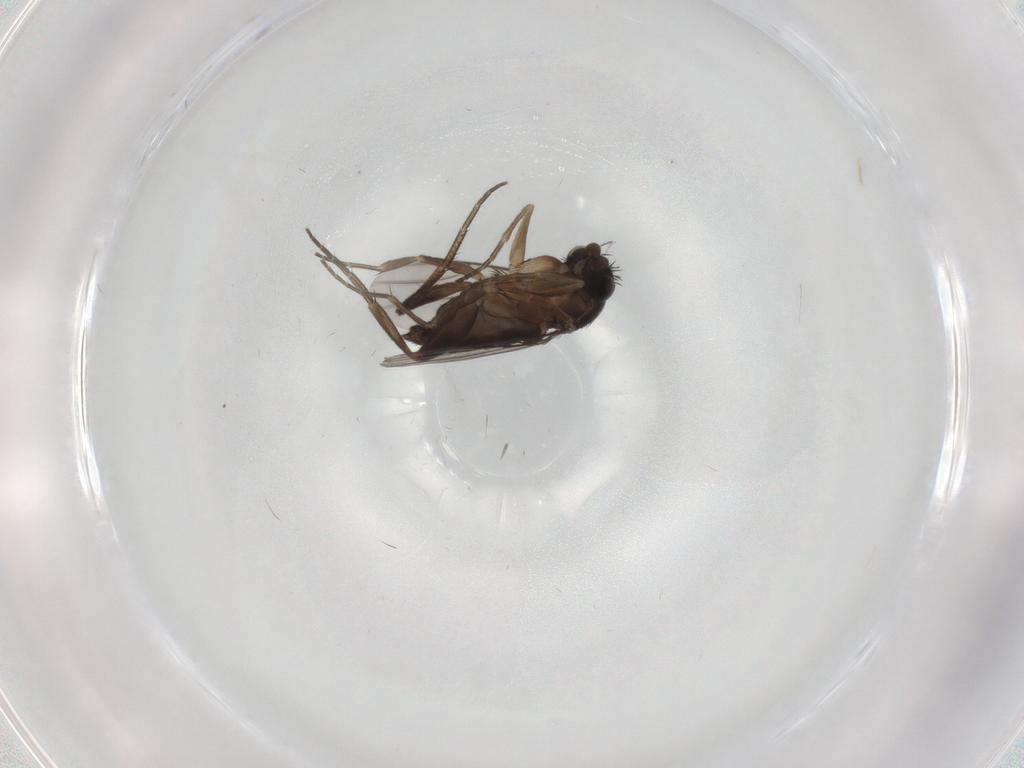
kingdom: Animalia
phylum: Arthropoda
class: Insecta
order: Diptera
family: Phoridae
